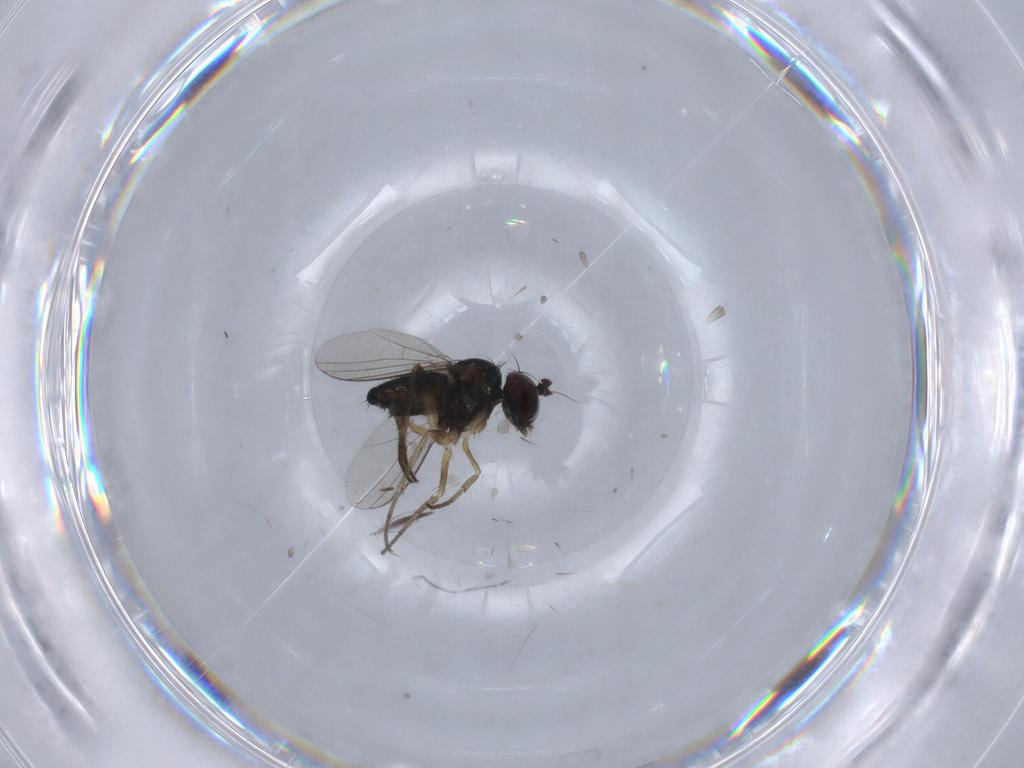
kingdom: Animalia
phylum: Arthropoda
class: Insecta
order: Diptera
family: Ceratopogonidae
